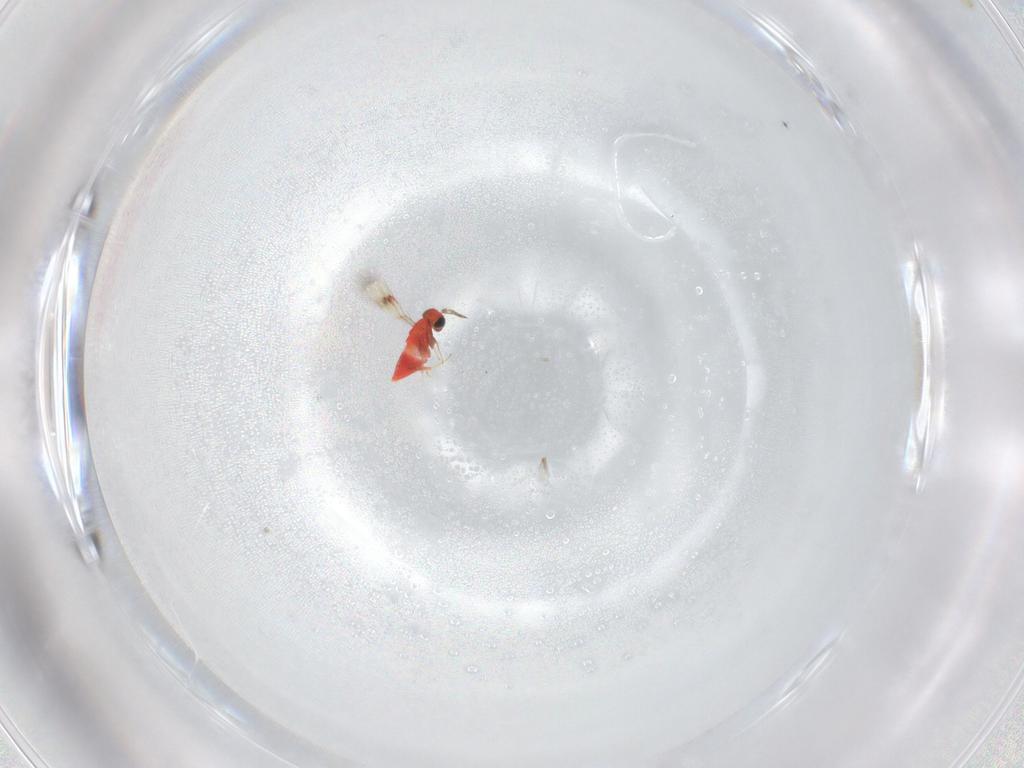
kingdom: Animalia
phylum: Arthropoda
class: Insecta
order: Hymenoptera
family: Trichogrammatidae
